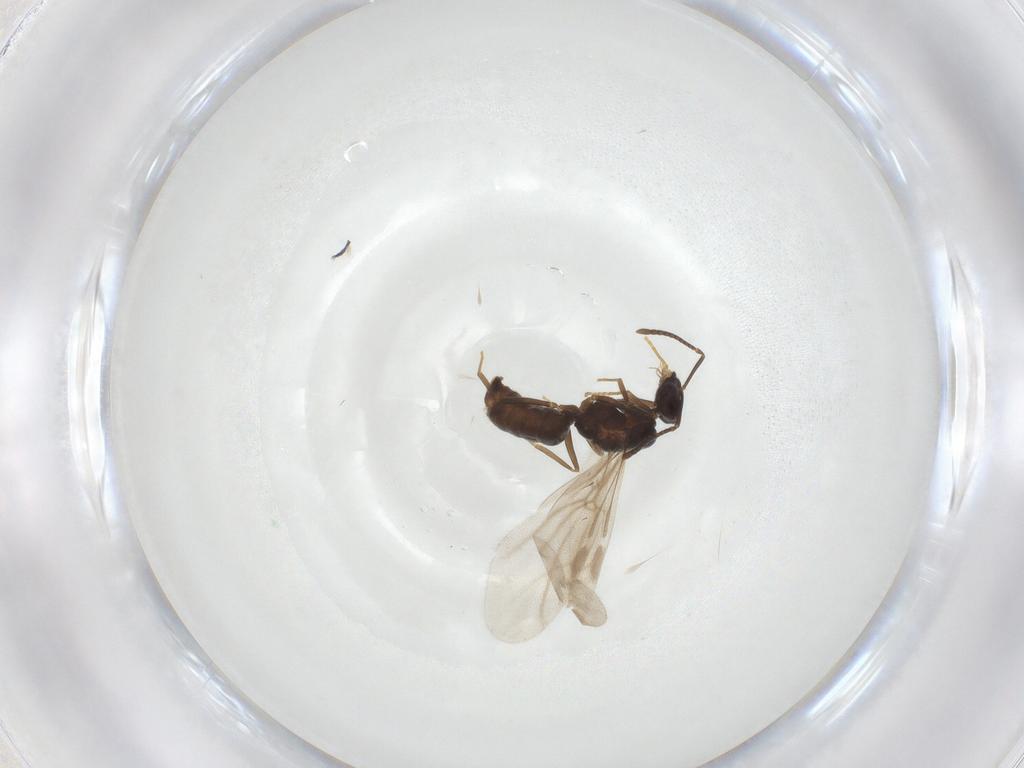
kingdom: Animalia
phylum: Arthropoda
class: Insecta
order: Hymenoptera
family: Formicidae
